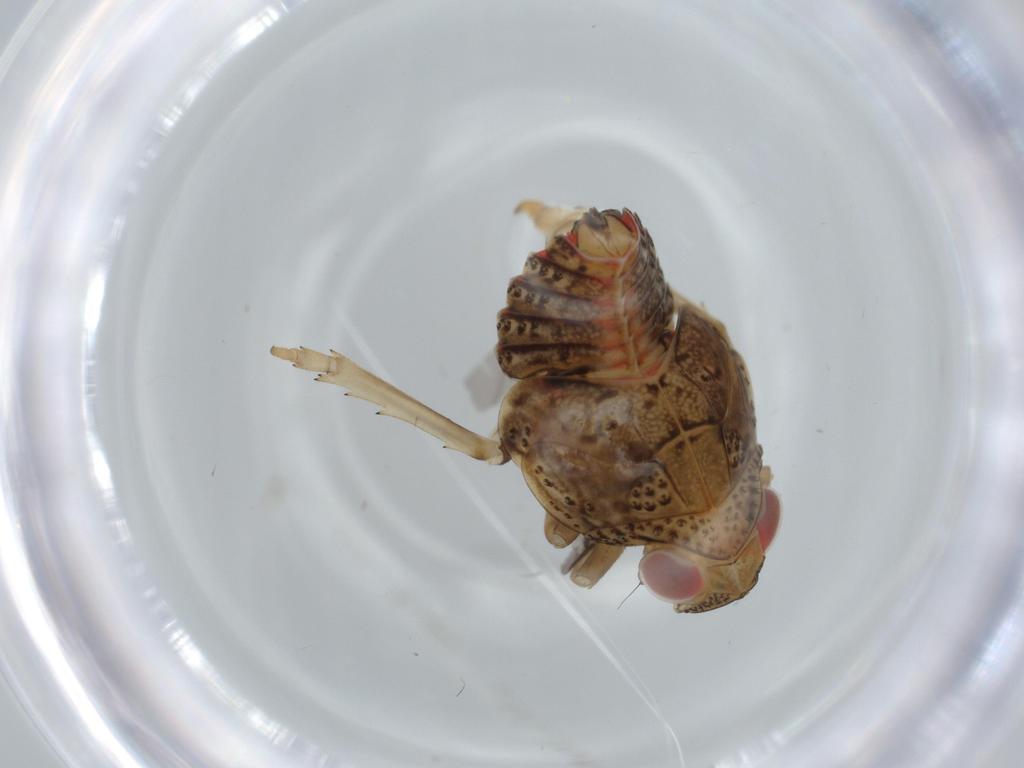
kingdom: Animalia
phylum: Arthropoda
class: Insecta
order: Hemiptera
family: Issidae
